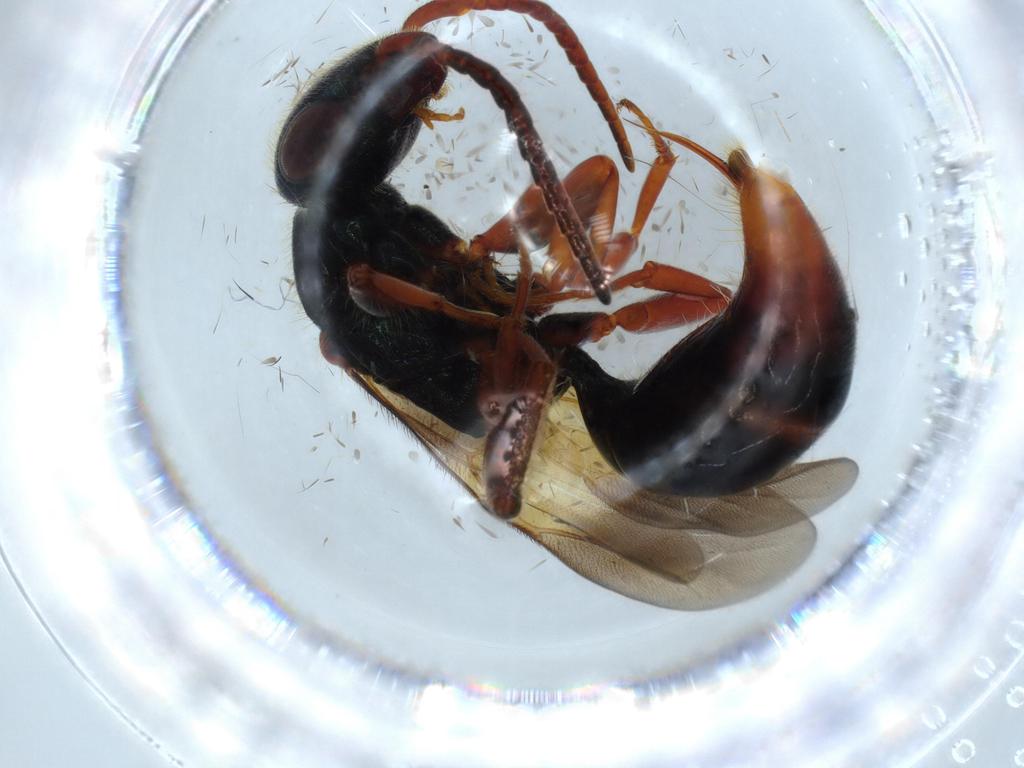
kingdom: Animalia
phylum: Arthropoda
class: Insecta
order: Hymenoptera
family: Bethylidae
